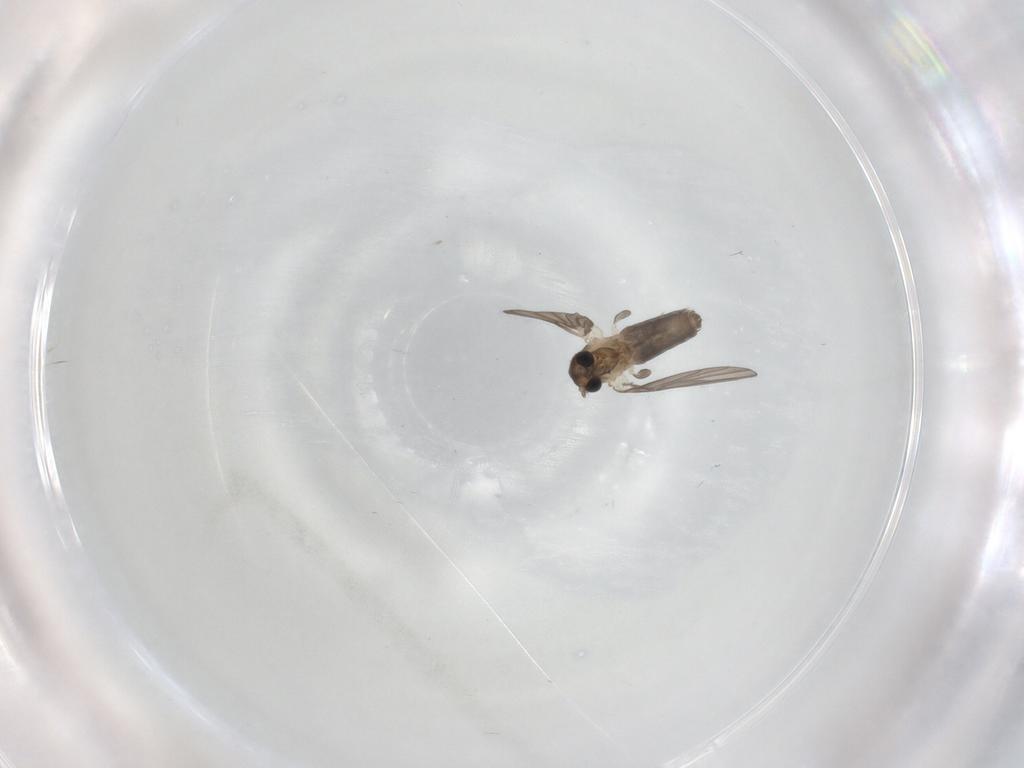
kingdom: Animalia
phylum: Arthropoda
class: Insecta
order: Diptera
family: Psychodidae
